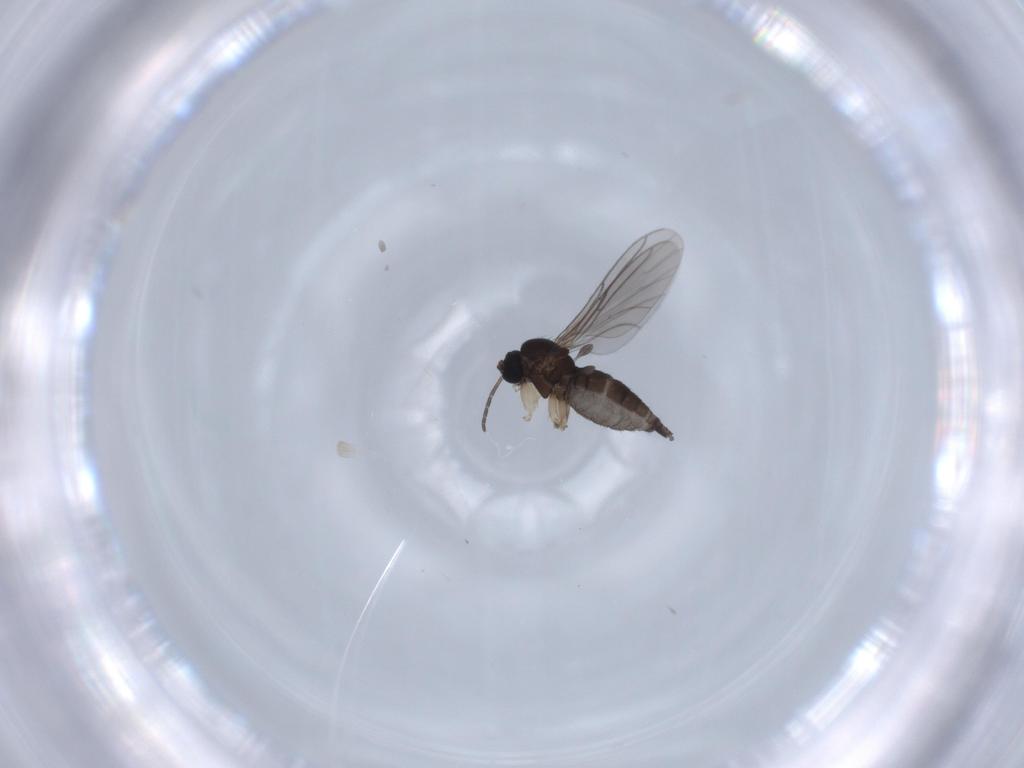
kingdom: Animalia
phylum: Arthropoda
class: Insecta
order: Diptera
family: Sciaridae
